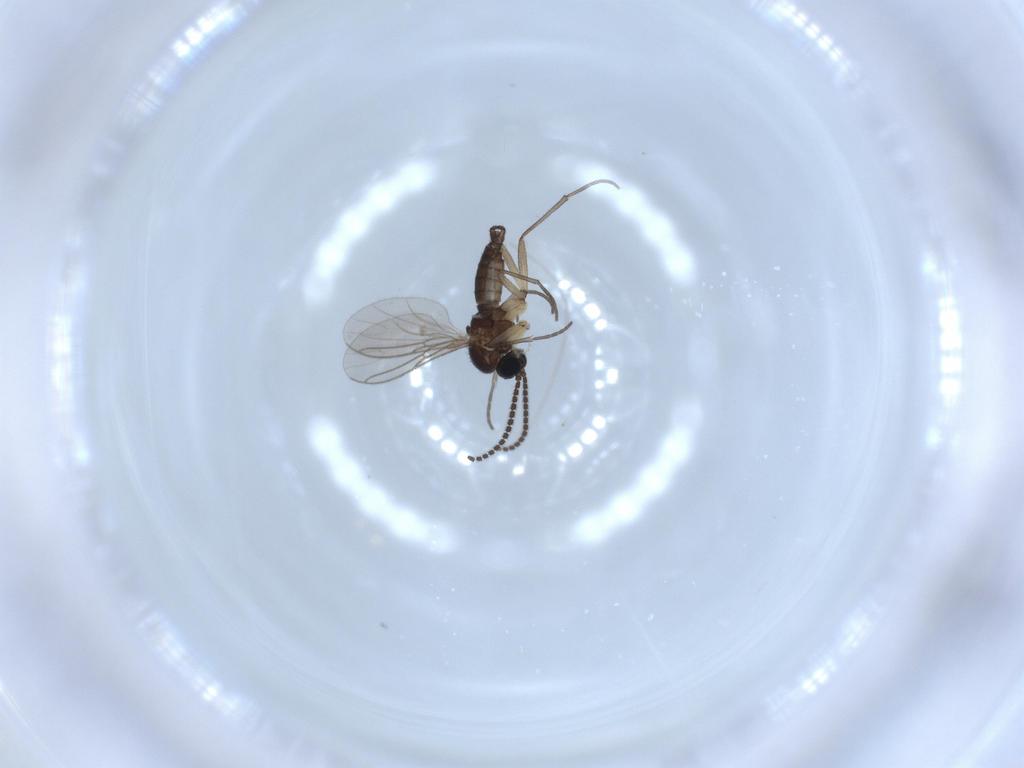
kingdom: Animalia
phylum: Arthropoda
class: Insecta
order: Diptera
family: Sciaridae
